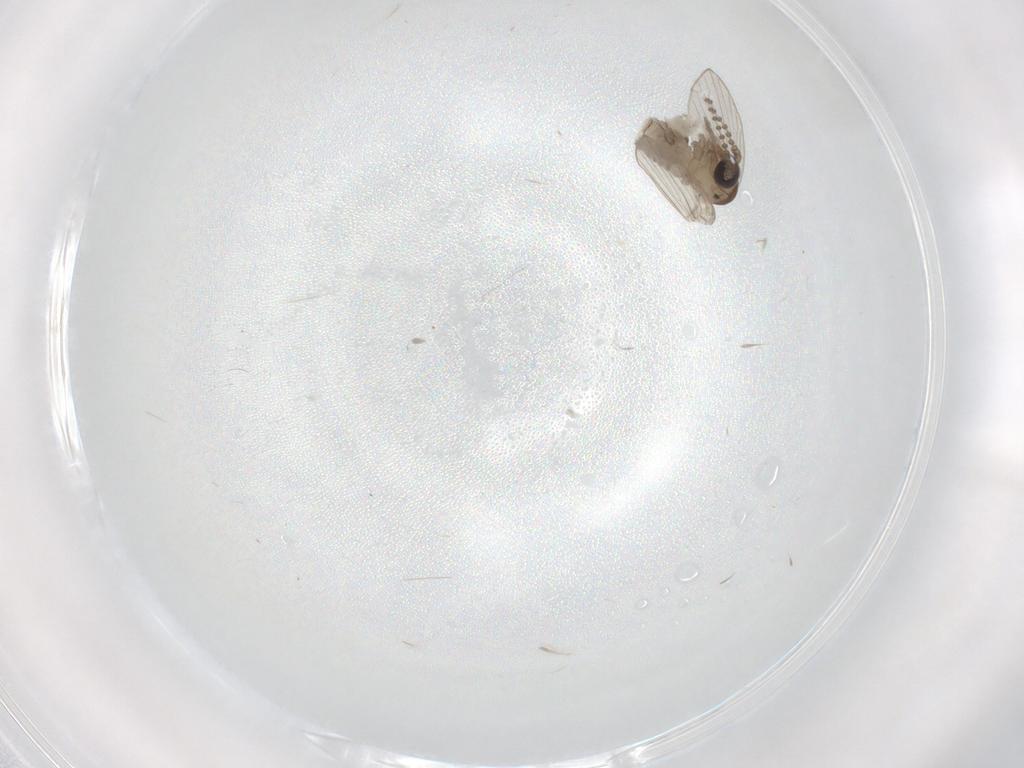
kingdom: Animalia
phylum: Arthropoda
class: Insecta
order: Diptera
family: Psychodidae
